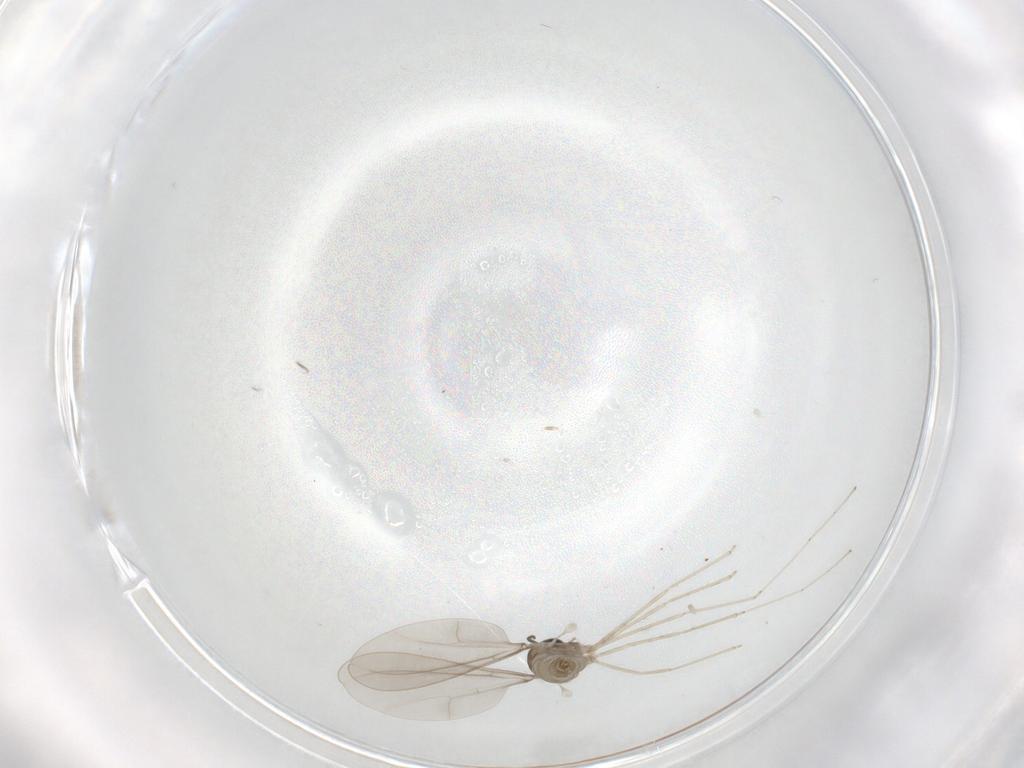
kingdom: Animalia
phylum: Arthropoda
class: Insecta
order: Diptera
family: Cecidomyiidae
